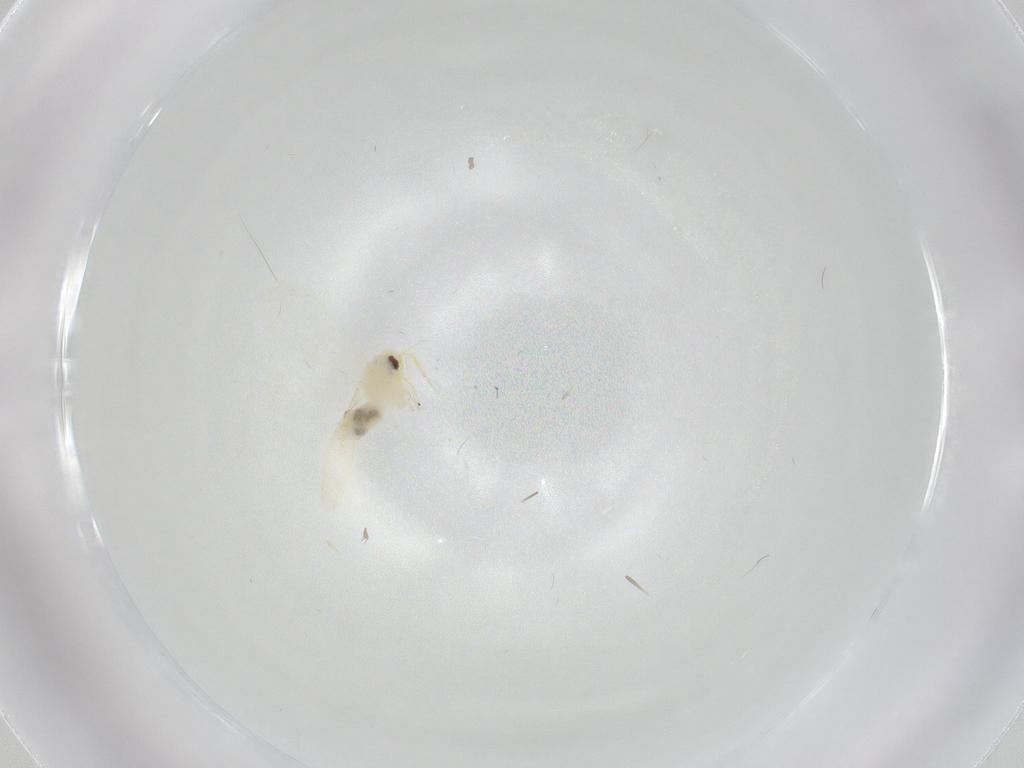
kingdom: Animalia
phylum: Arthropoda
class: Insecta
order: Hemiptera
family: Aleyrodidae
